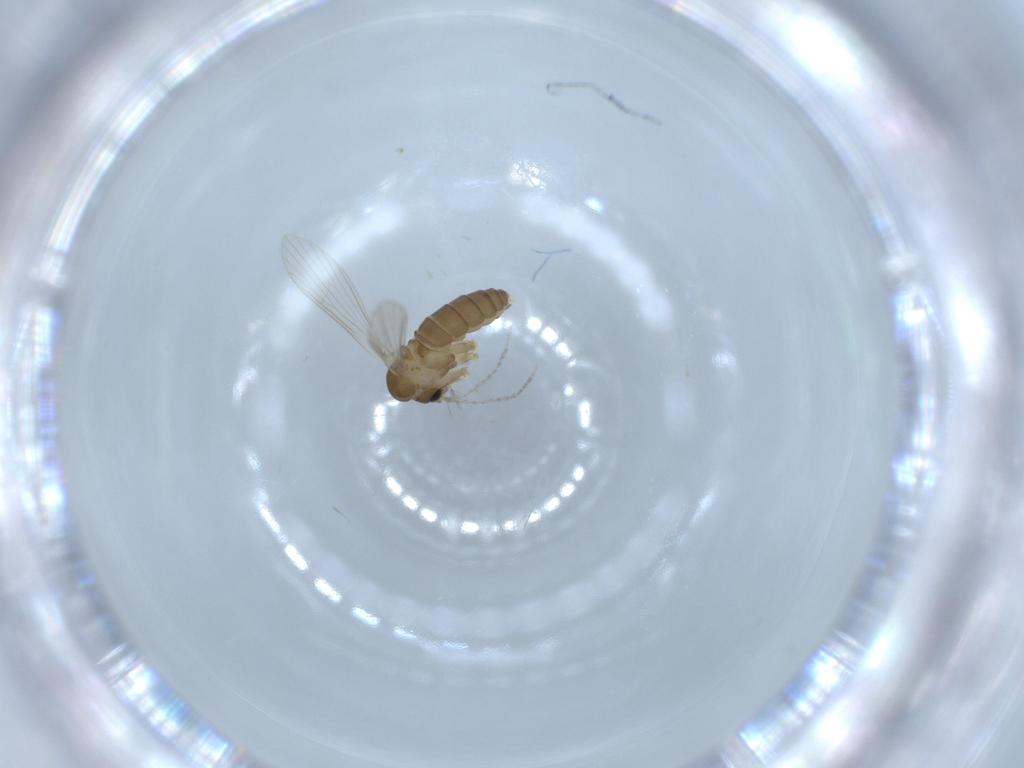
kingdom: Animalia
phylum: Arthropoda
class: Insecta
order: Diptera
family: Psychodidae
